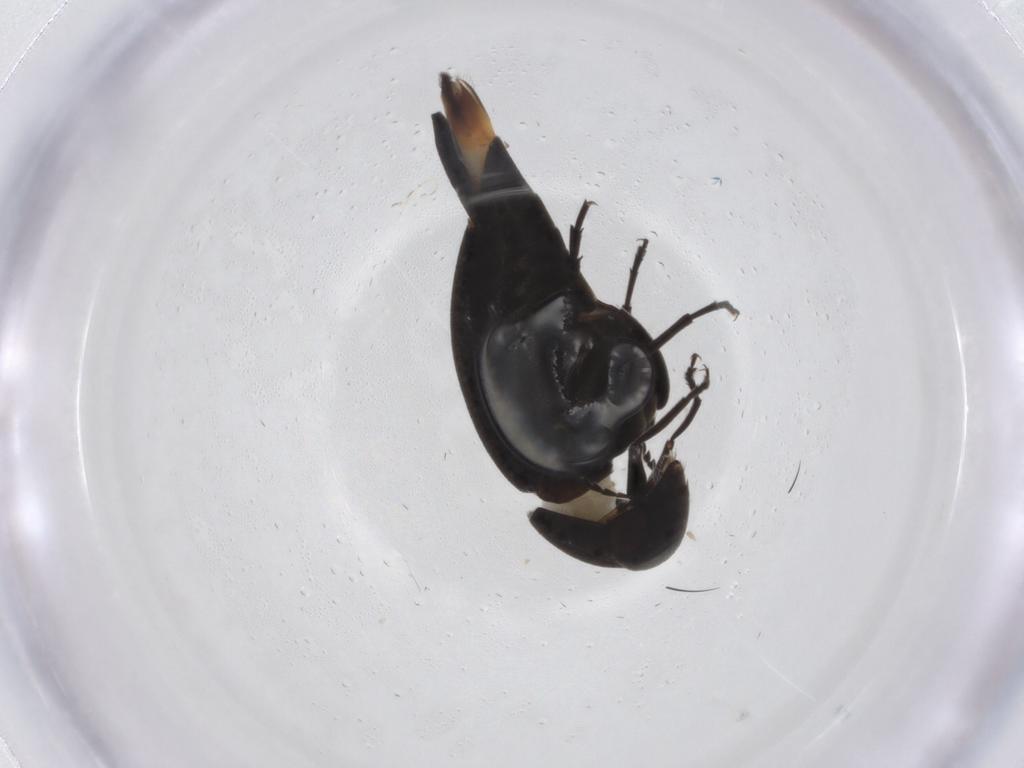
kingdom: Animalia
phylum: Arthropoda
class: Insecta
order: Coleoptera
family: Mordellidae
